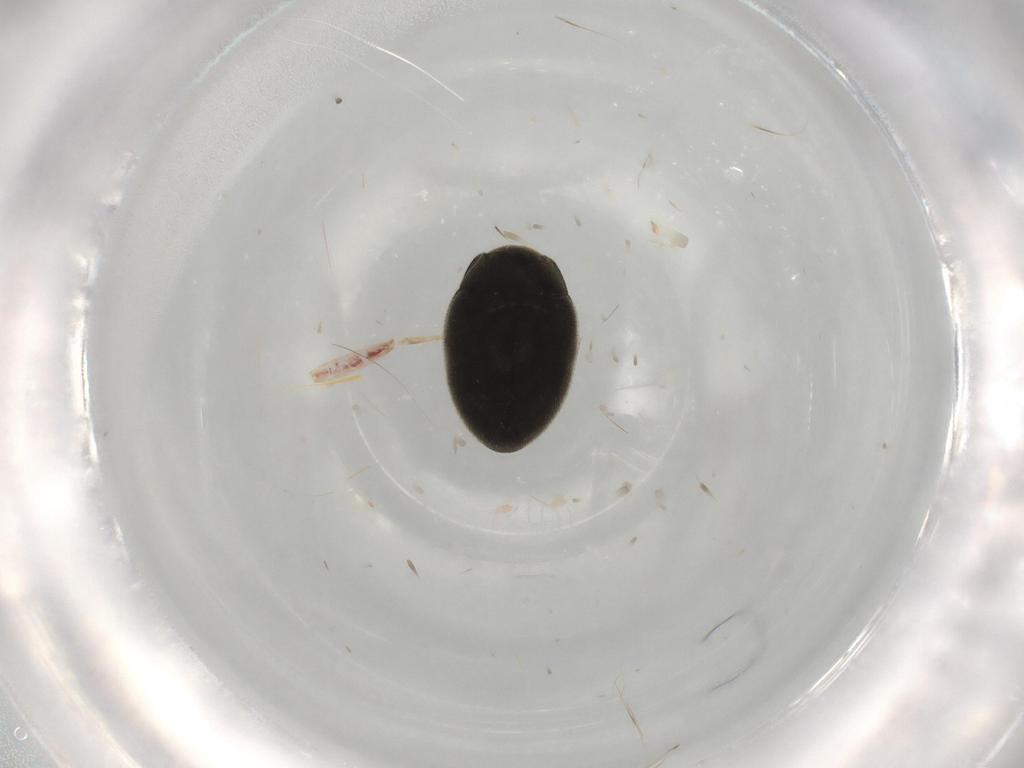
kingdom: Animalia
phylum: Arthropoda
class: Insecta
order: Coleoptera
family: Limnichidae
